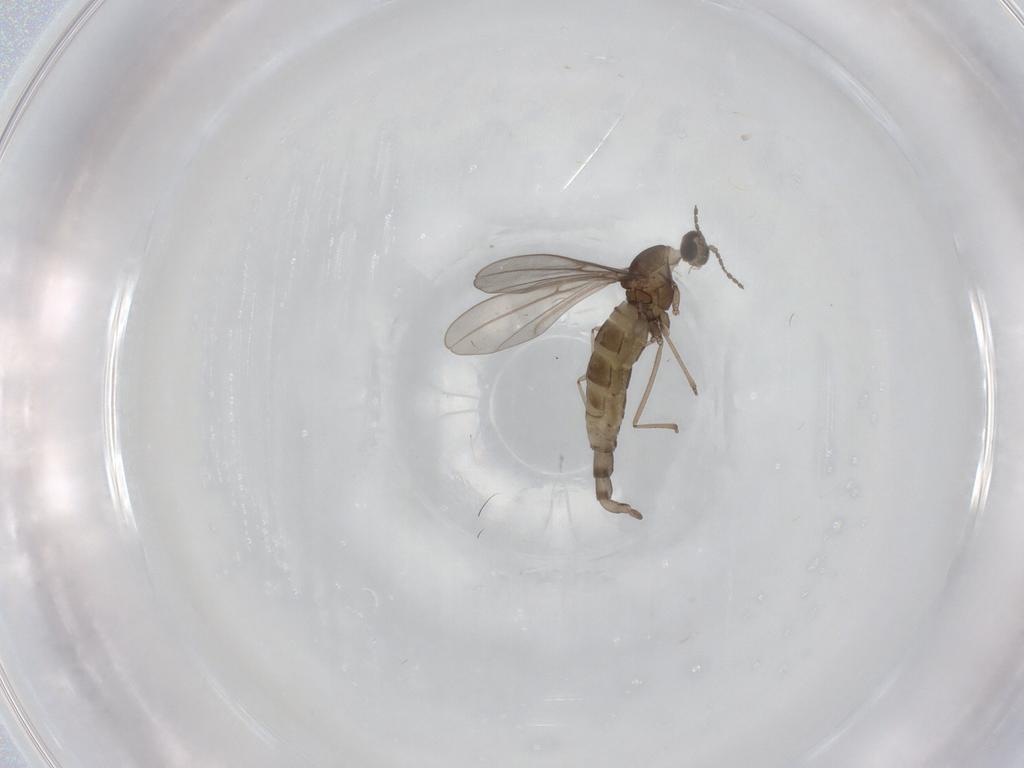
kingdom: Animalia
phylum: Arthropoda
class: Insecta
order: Diptera
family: Cecidomyiidae
